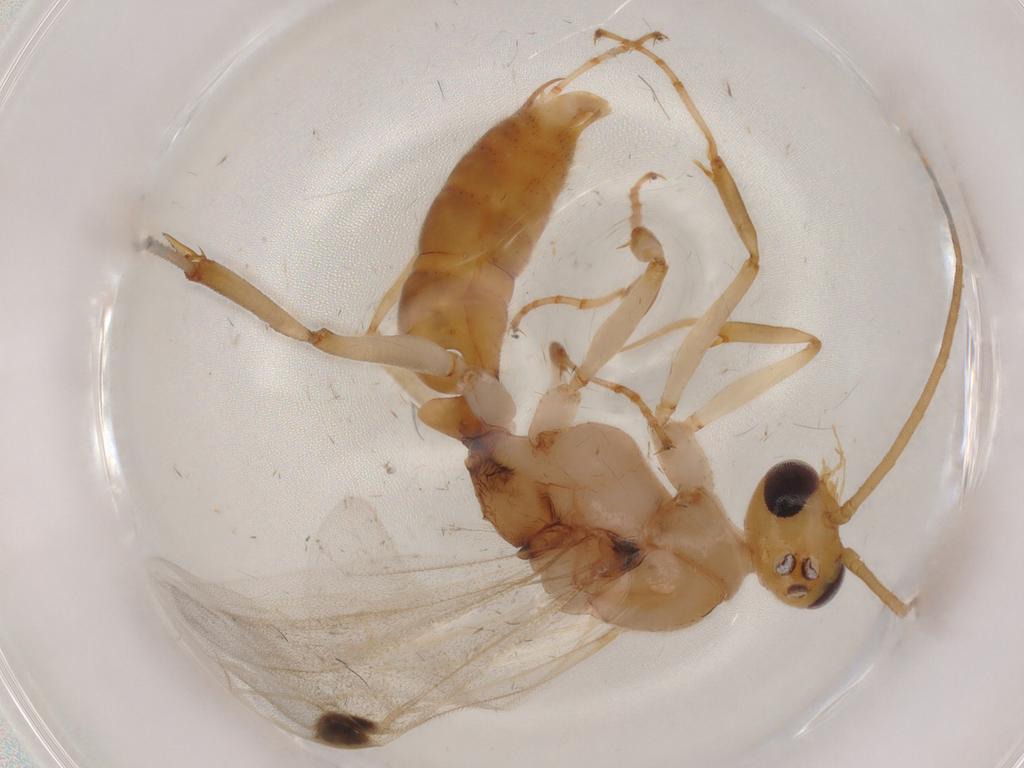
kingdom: Animalia
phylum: Arthropoda
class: Insecta
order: Hymenoptera
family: Formicidae
